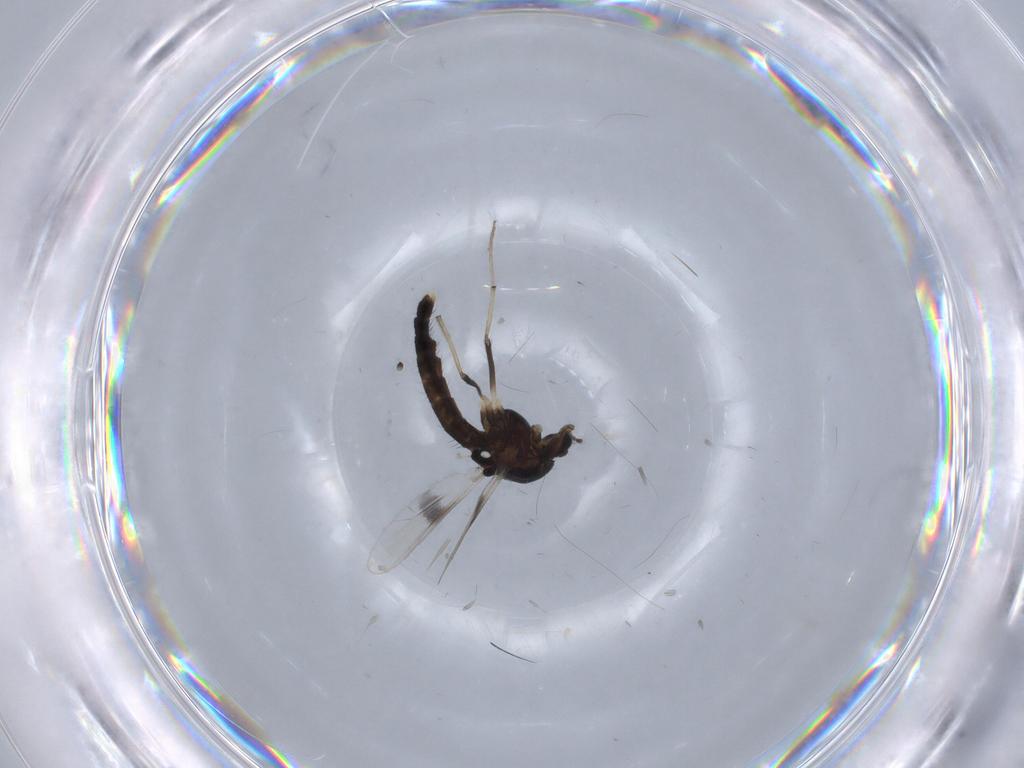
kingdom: Animalia
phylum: Arthropoda
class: Insecta
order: Diptera
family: Chironomidae
